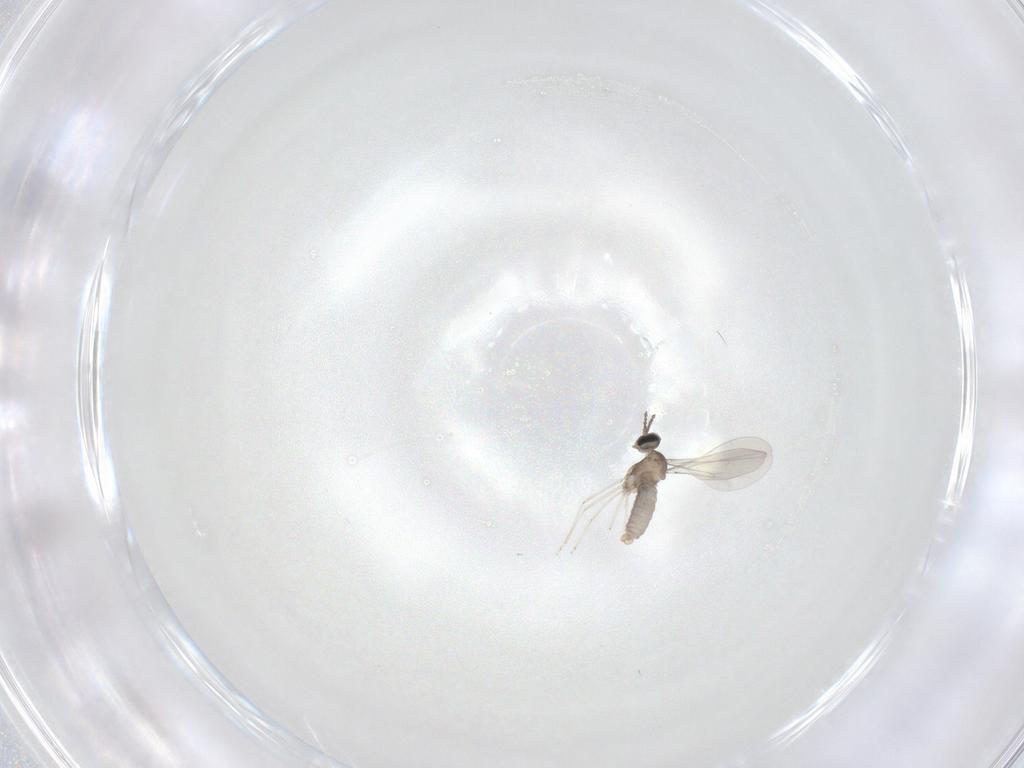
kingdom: Animalia
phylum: Arthropoda
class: Insecta
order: Diptera
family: Cecidomyiidae
